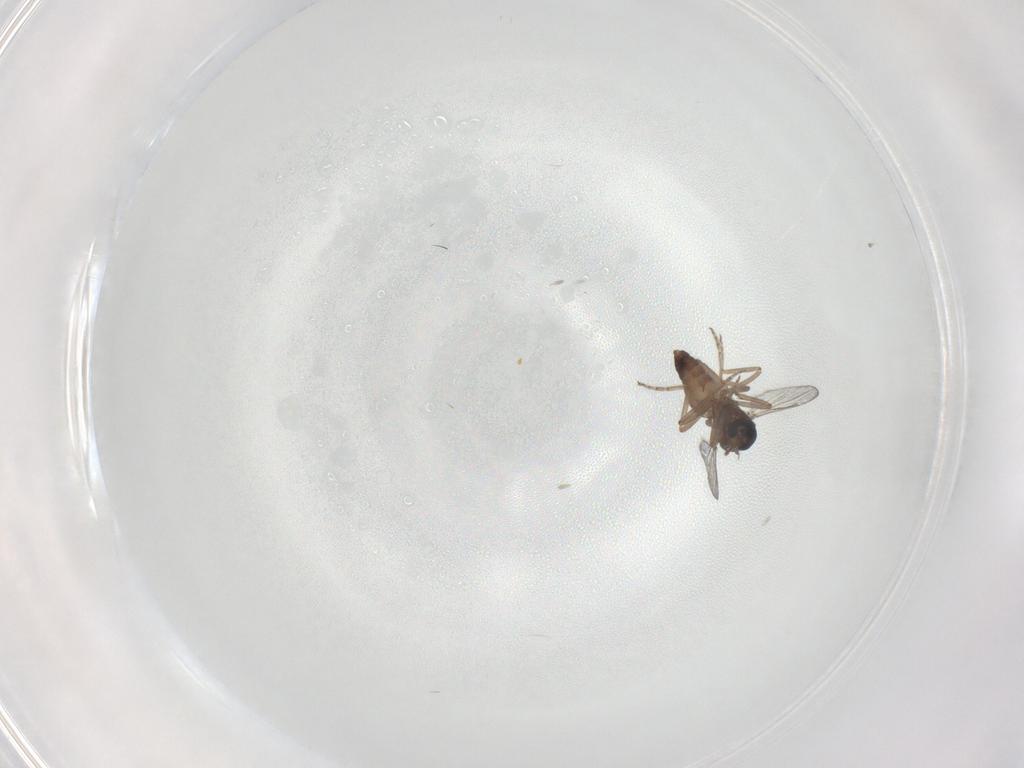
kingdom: Animalia
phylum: Arthropoda
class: Insecta
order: Diptera
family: Ceratopogonidae
